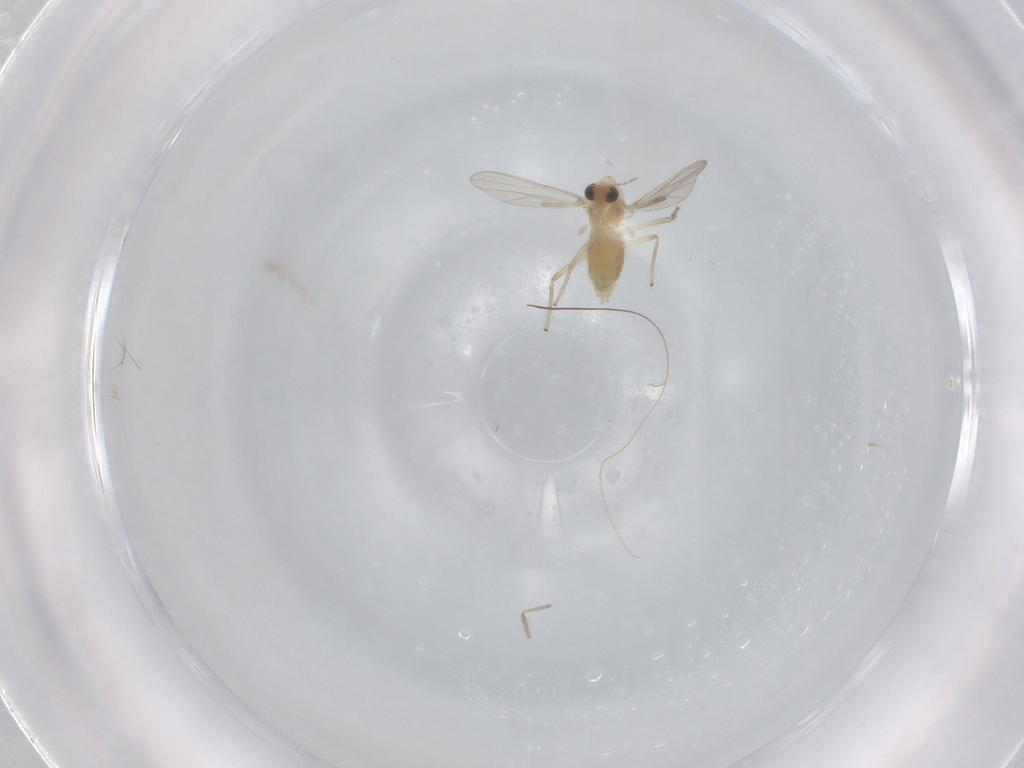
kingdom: Animalia
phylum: Arthropoda
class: Insecta
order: Diptera
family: Chironomidae
